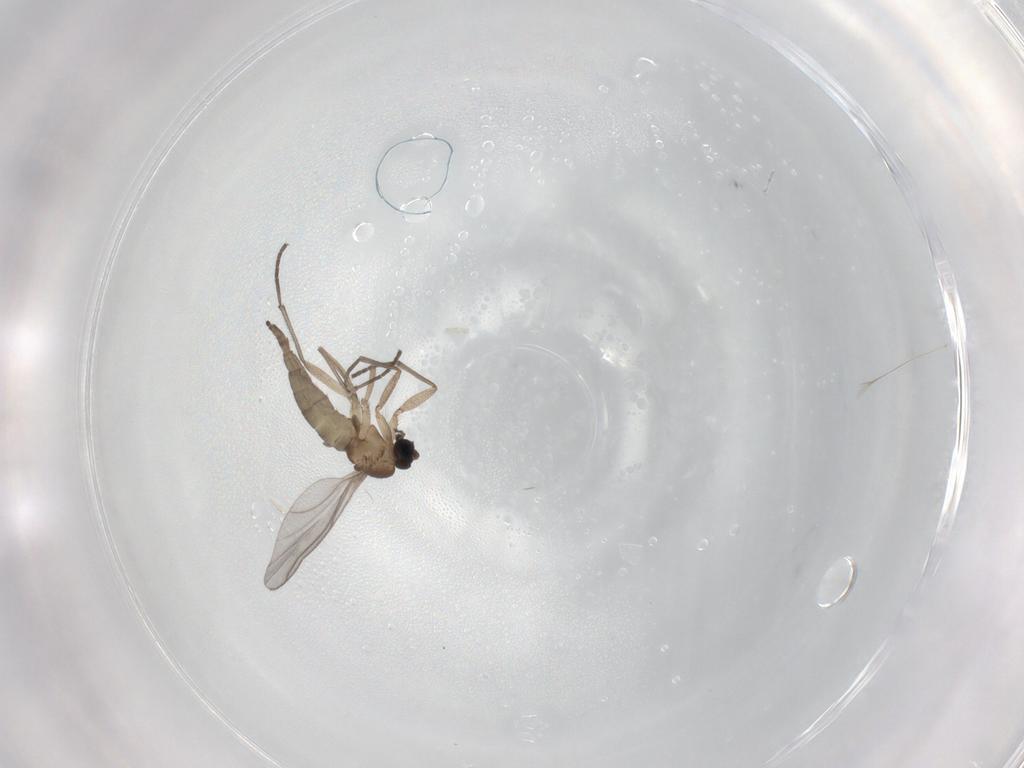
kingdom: Animalia
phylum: Arthropoda
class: Insecta
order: Diptera
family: Sciaridae
